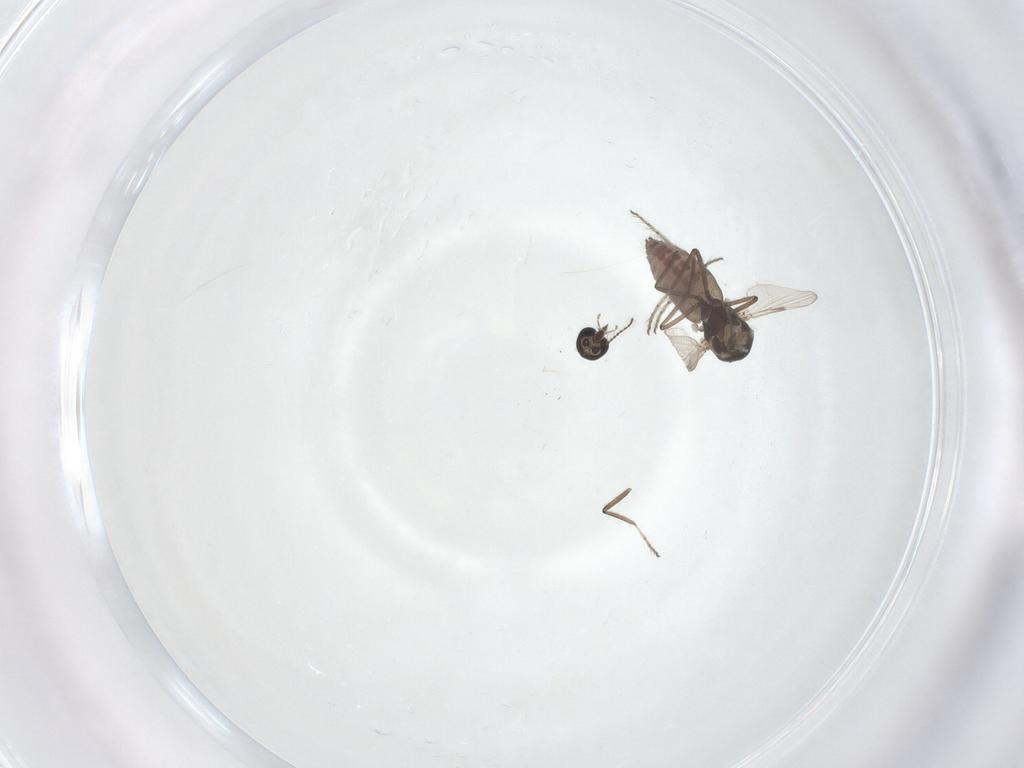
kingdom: Animalia
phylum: Arthropoda
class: Insecta
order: Diptera
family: Ceratopogonidae
